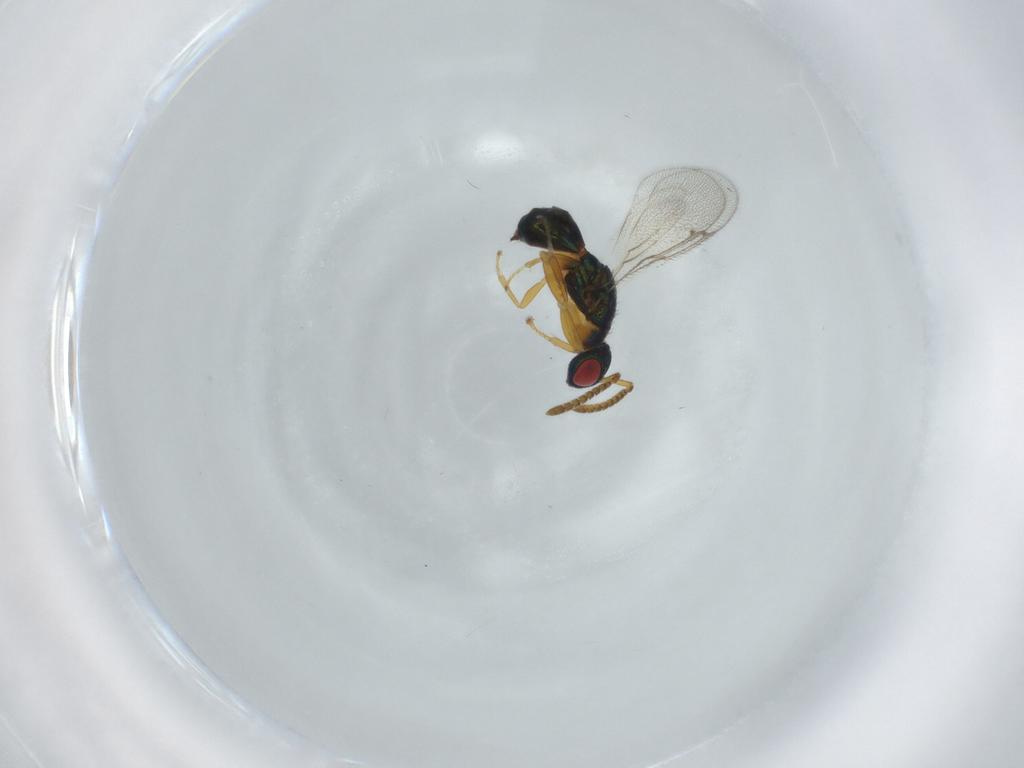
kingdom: Animalia
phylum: Arthropoda
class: Insecta
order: Hymenoptera
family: Torymidae
